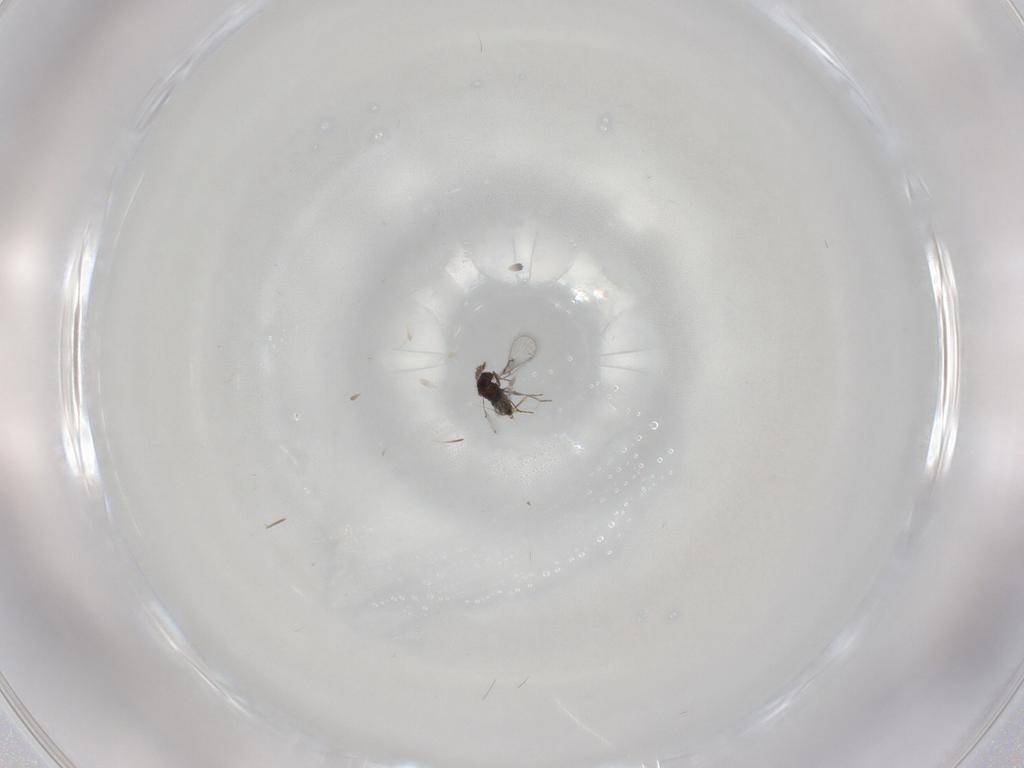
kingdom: Animalia
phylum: Arthropoda
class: Insecta
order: Hymenoptera
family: Trichogrammatidae
